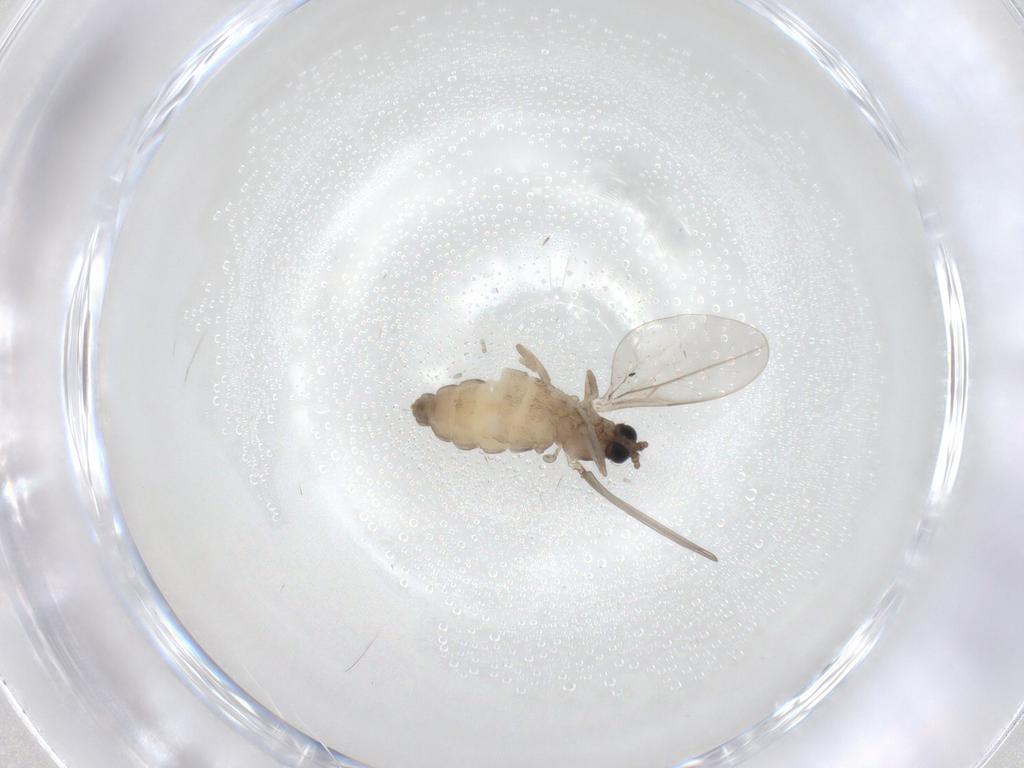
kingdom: Animalia
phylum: Arthropoda
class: Insecta
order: Diptera
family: Cecidomyiidae
